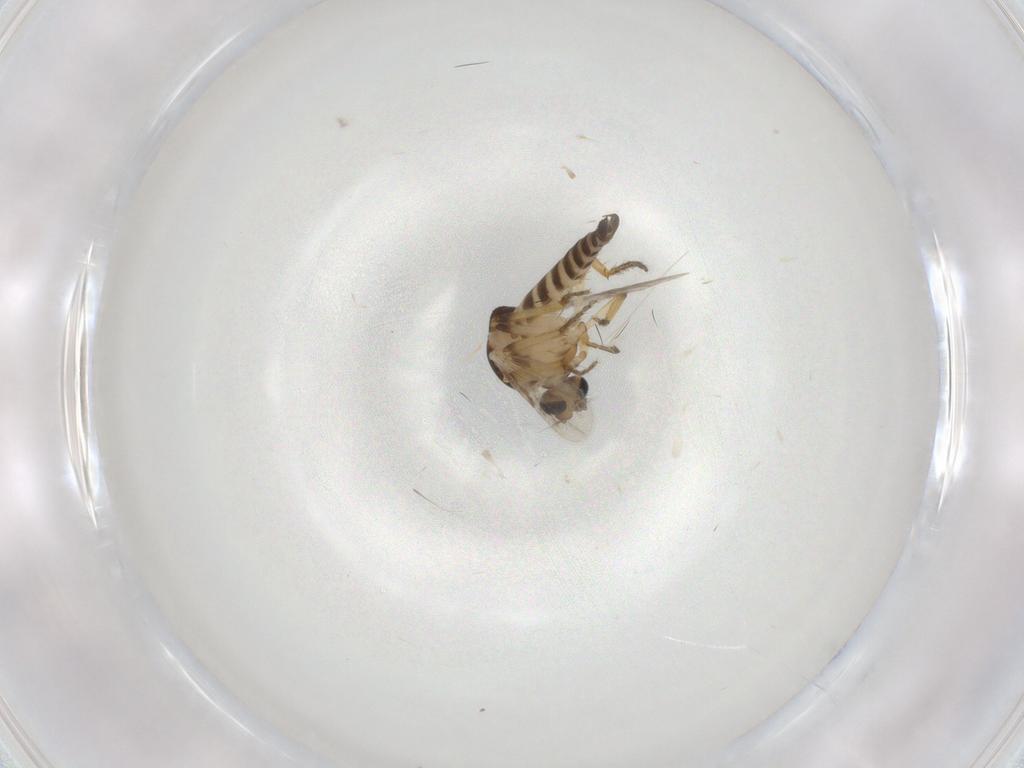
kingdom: Animalia
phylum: Arthropoda
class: Insecta
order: Diptera
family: Ceratopogonidae
